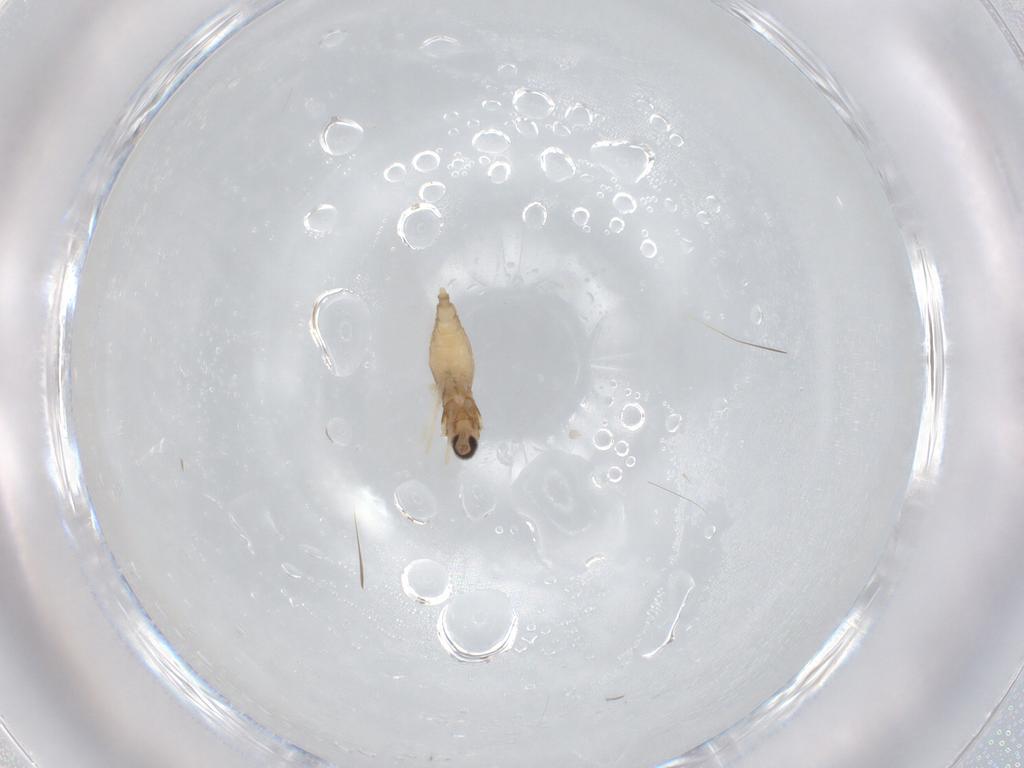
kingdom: Animalia
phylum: Arthropoda
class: Insecta
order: Diptera
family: Cecidomyiidae
